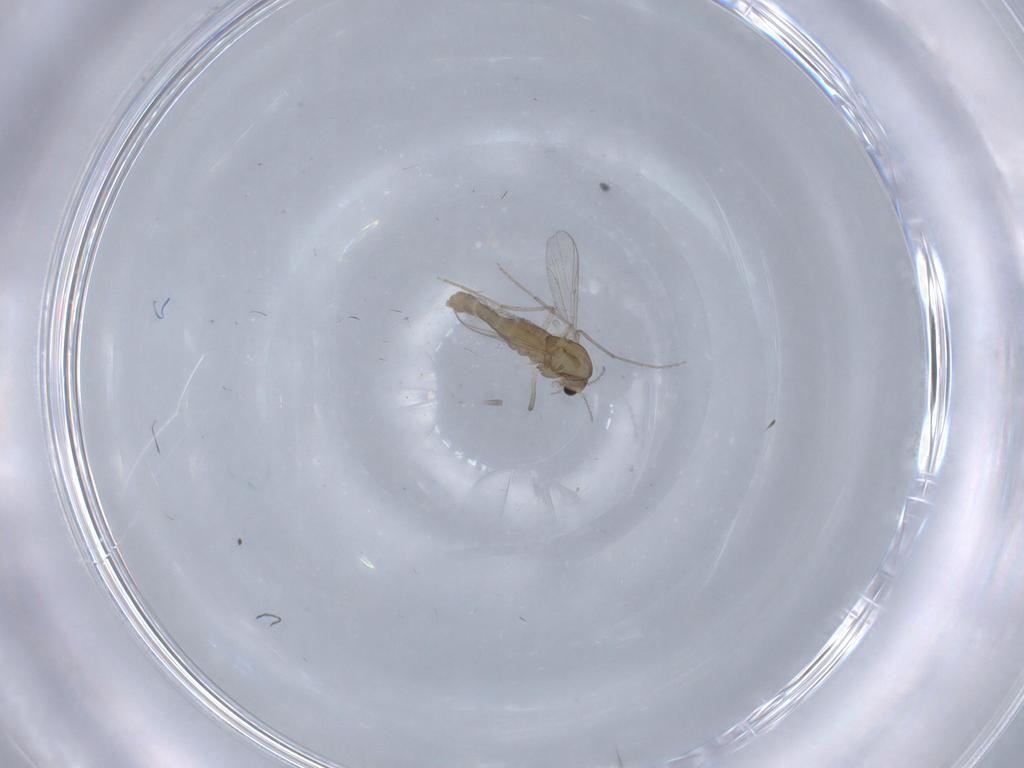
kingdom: Animalia
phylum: Arthropoda
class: Insecta
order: Diptera
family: Chironomidae
